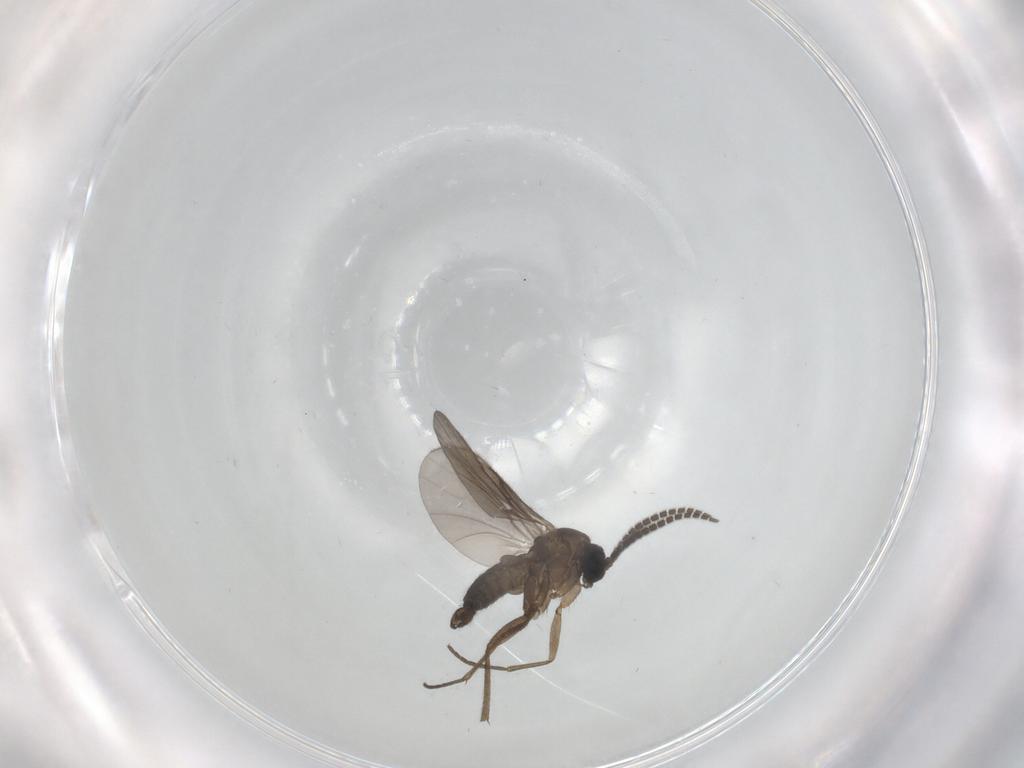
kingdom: Animalia
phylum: Arthropoda
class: Insecta
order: Diptera
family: Sciaridae
